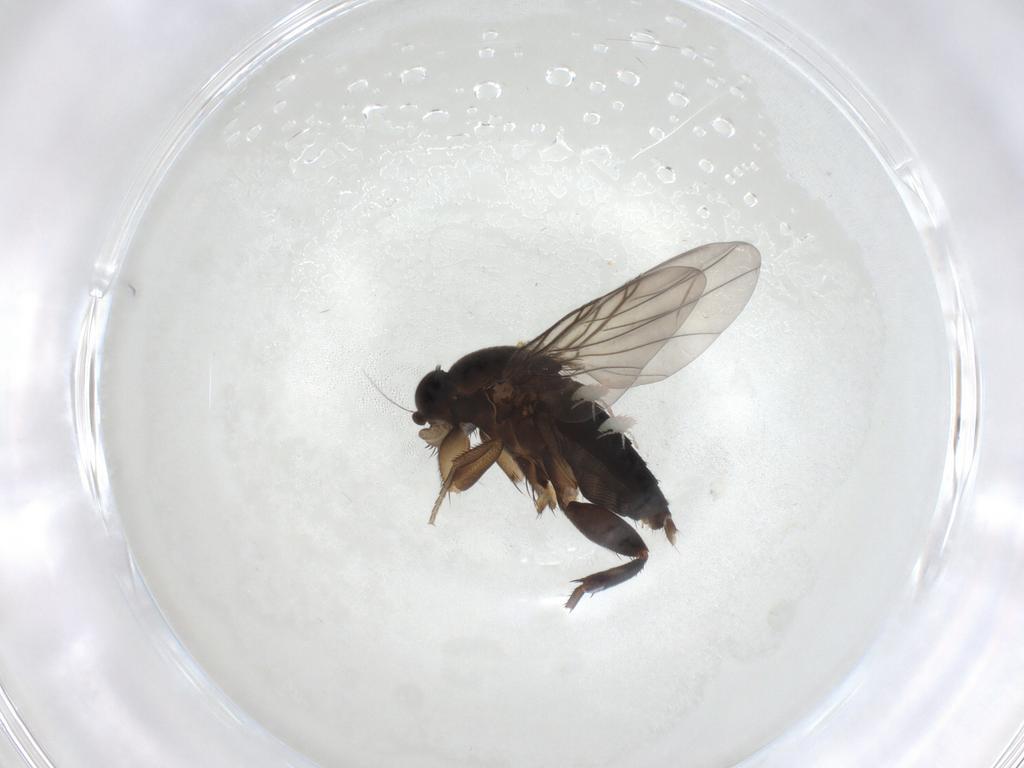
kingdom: Animalia
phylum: Arthropoda
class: Insecta
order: Diptera
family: Phoridae
